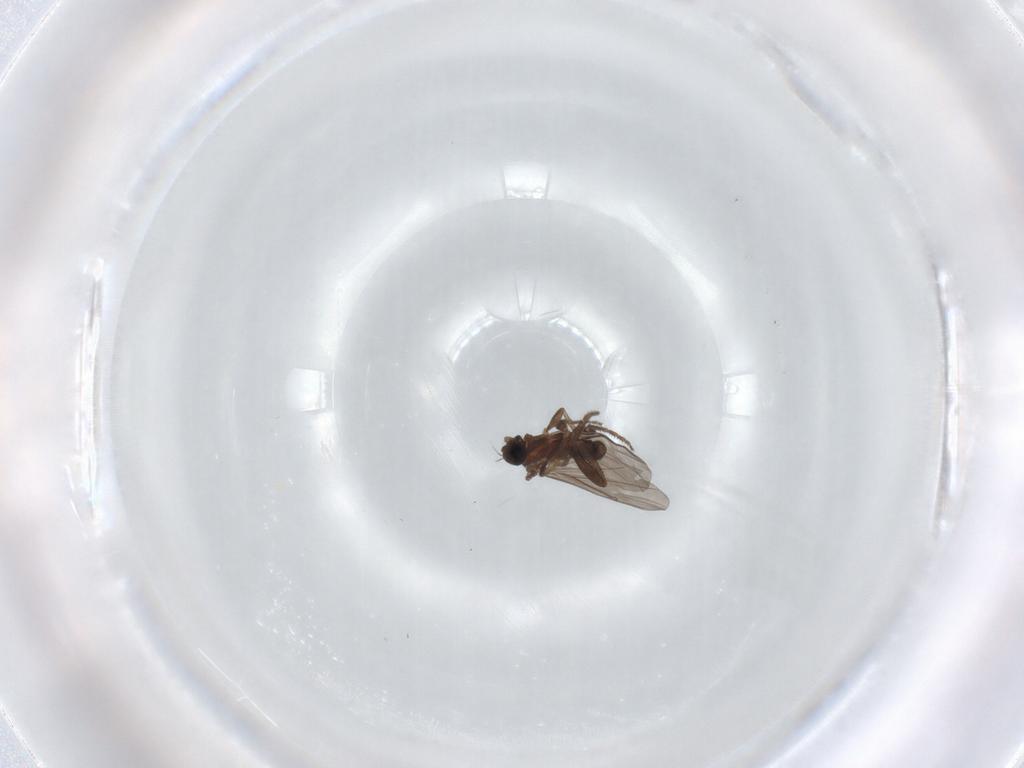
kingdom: Animalia
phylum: Arthropoda
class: Insecta
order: Diptera
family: Phoridae
